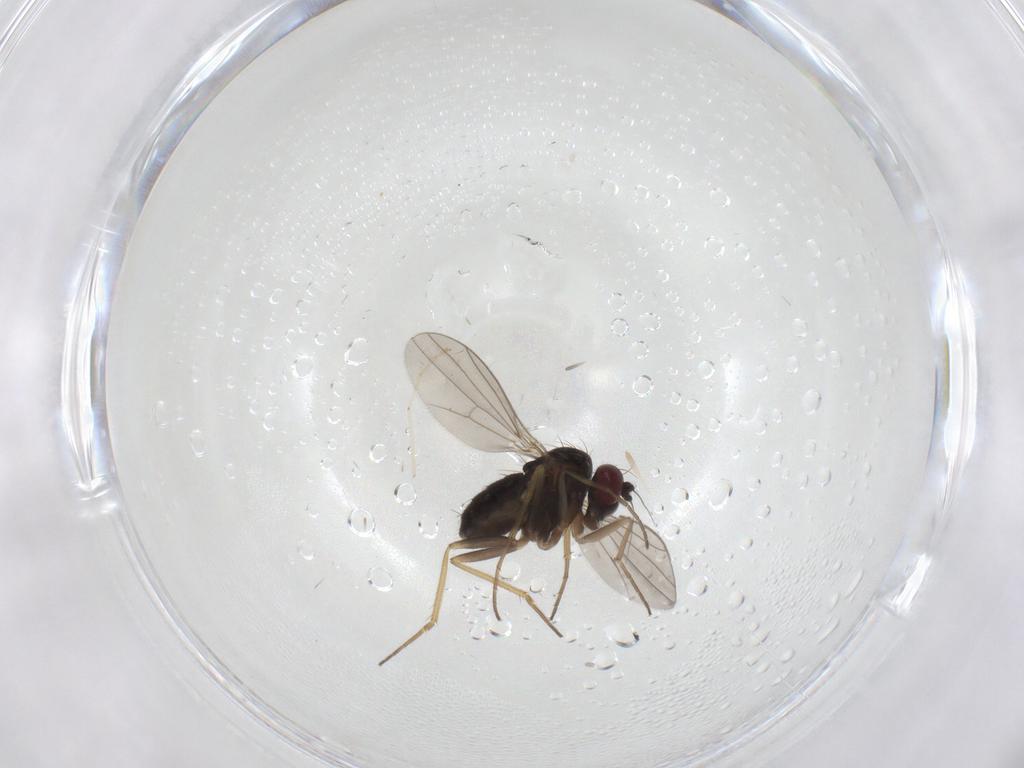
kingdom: Animalia
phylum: Arthropoda
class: Insecta
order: Diptera
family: Dolichopodidae
